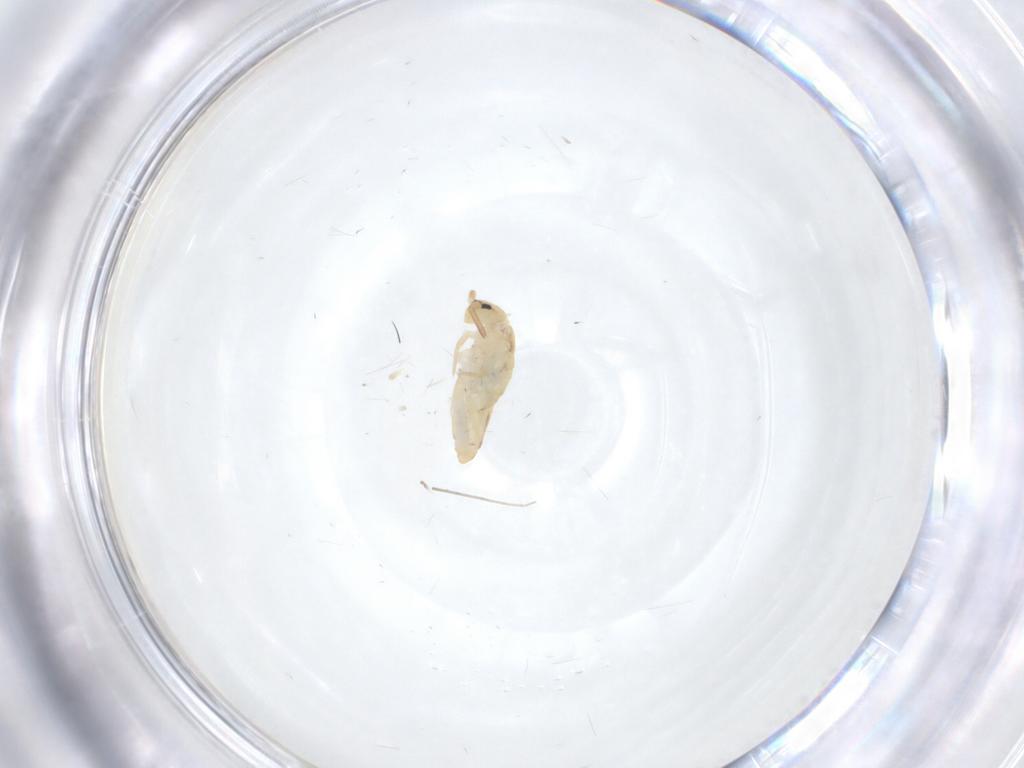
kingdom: Animalia
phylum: Arthropoda
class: Collembola
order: Entomobryomorpha
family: Entomobryidae
